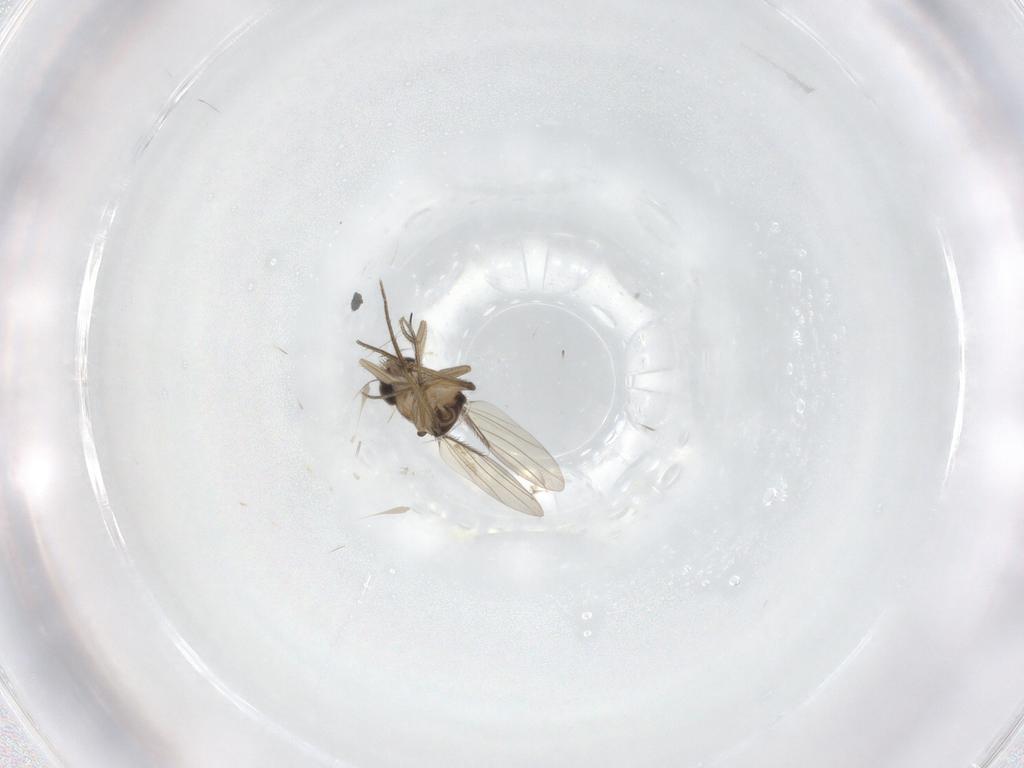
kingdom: Animalia
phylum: Arthropoda
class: Insecta
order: Diptera
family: Phoridae
